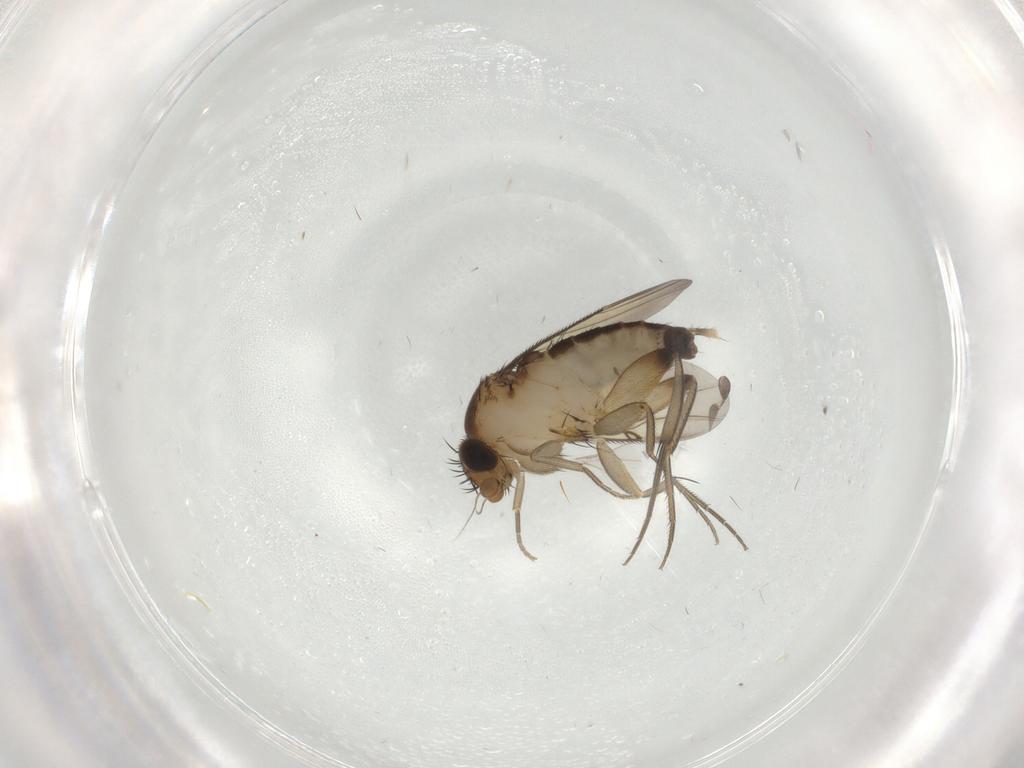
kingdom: Animalia
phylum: Arthropoda
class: Insecta
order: Diptera
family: Phoridae
